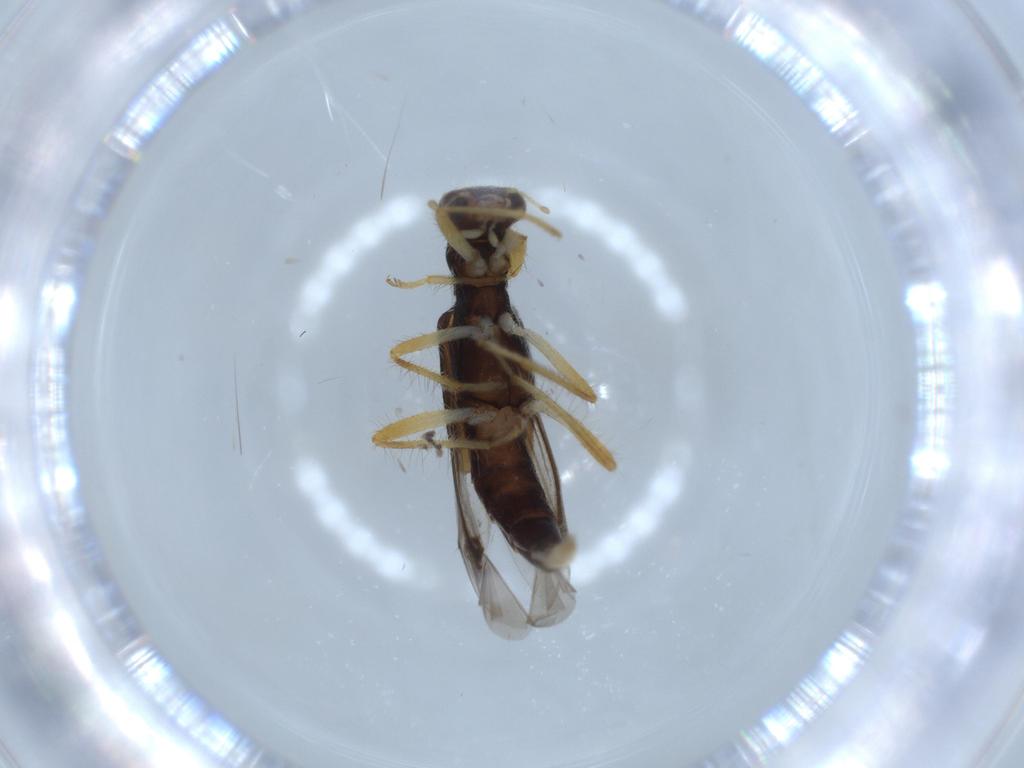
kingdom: Animalia
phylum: Arthropoda
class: Insecta
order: Coleoptera
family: Cleridae
